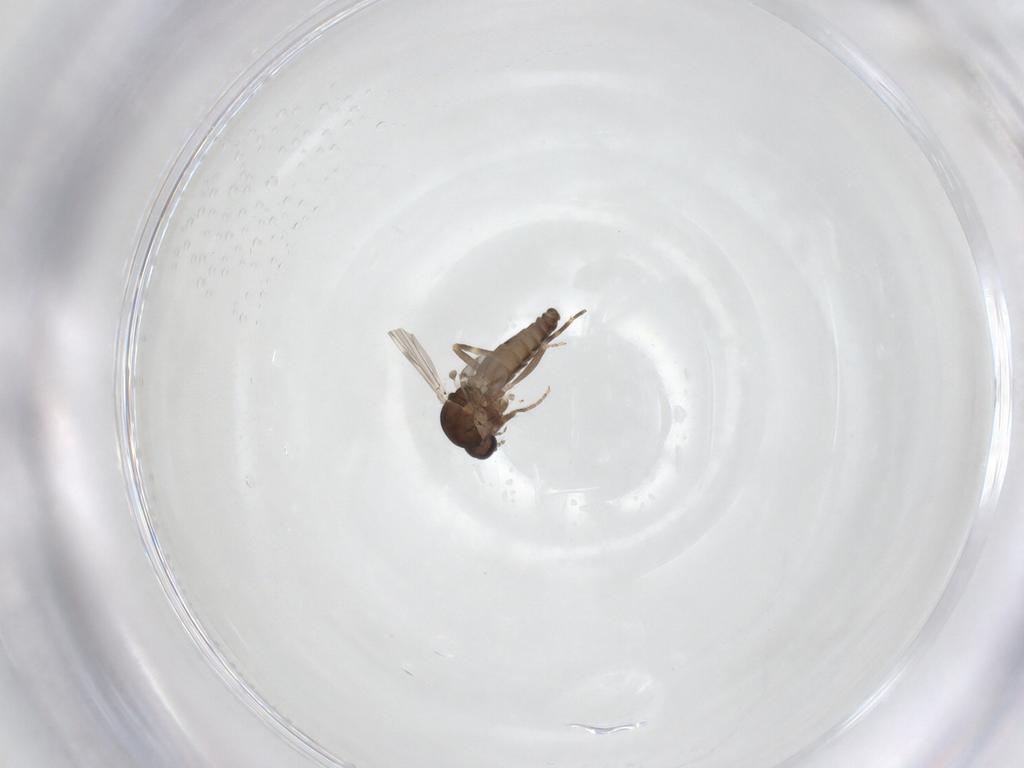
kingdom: Animalia
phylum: Arthropoda
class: Insecta
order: Diptera
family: Ceratopogonidae
